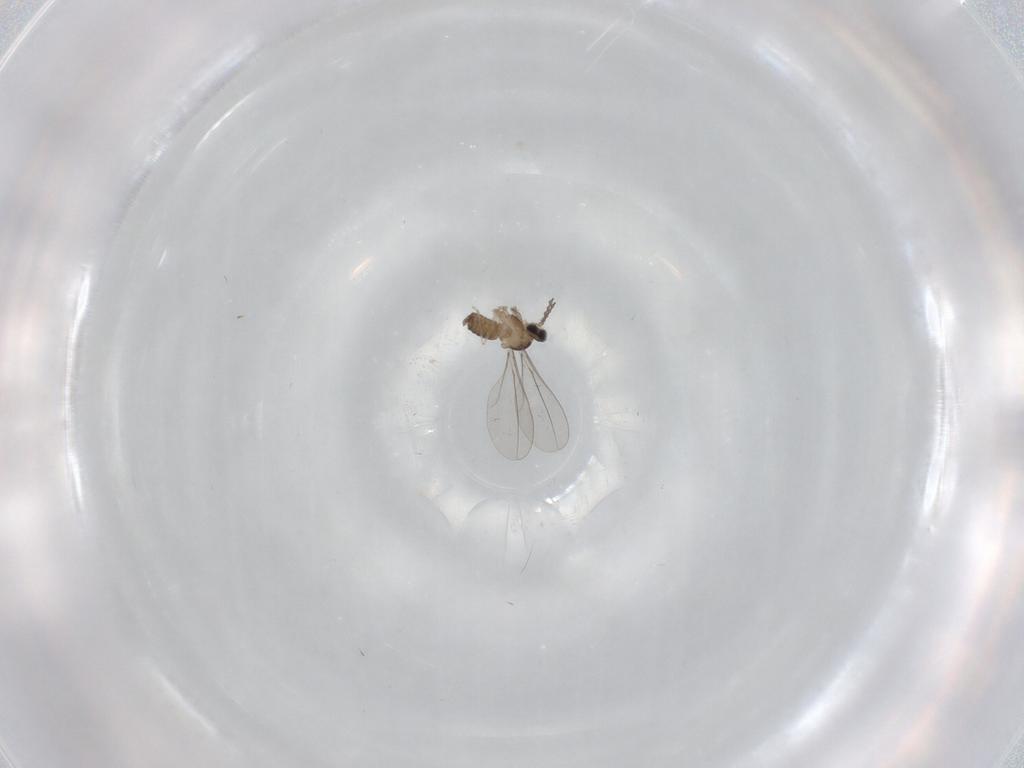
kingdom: Animalia
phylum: Arthropoda
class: Insecta
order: Diptera
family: Cecidomyiidae
